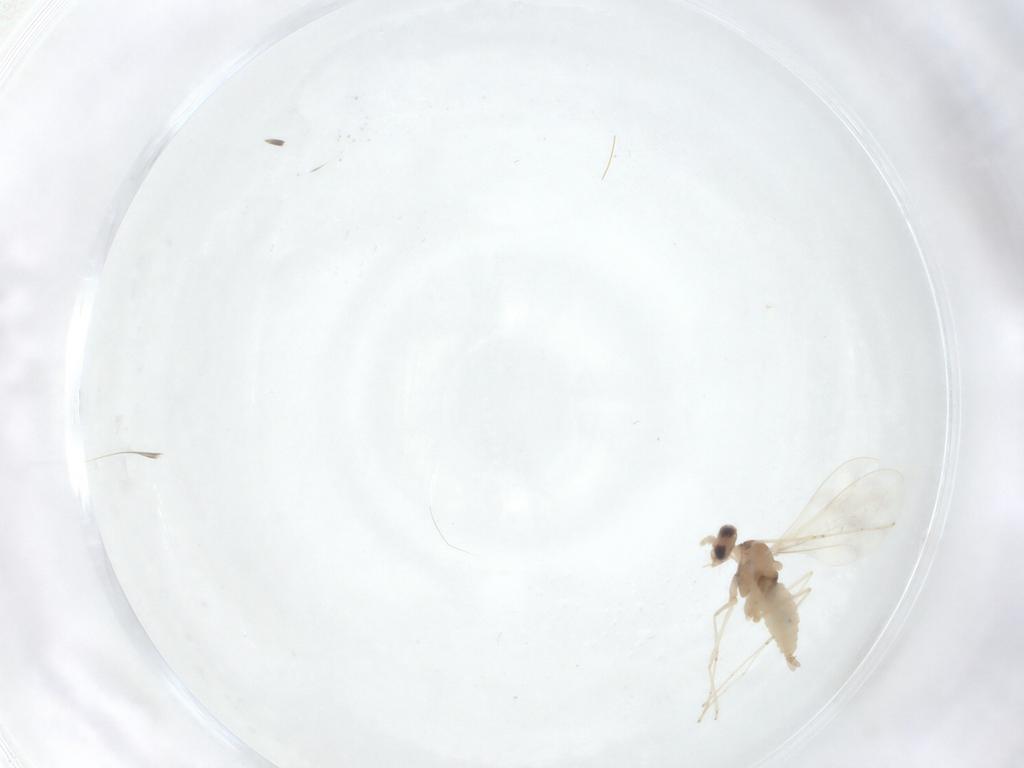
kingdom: Animalia
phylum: Arthropoda
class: Insecta
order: Diptera
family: Cecidomyiidae
